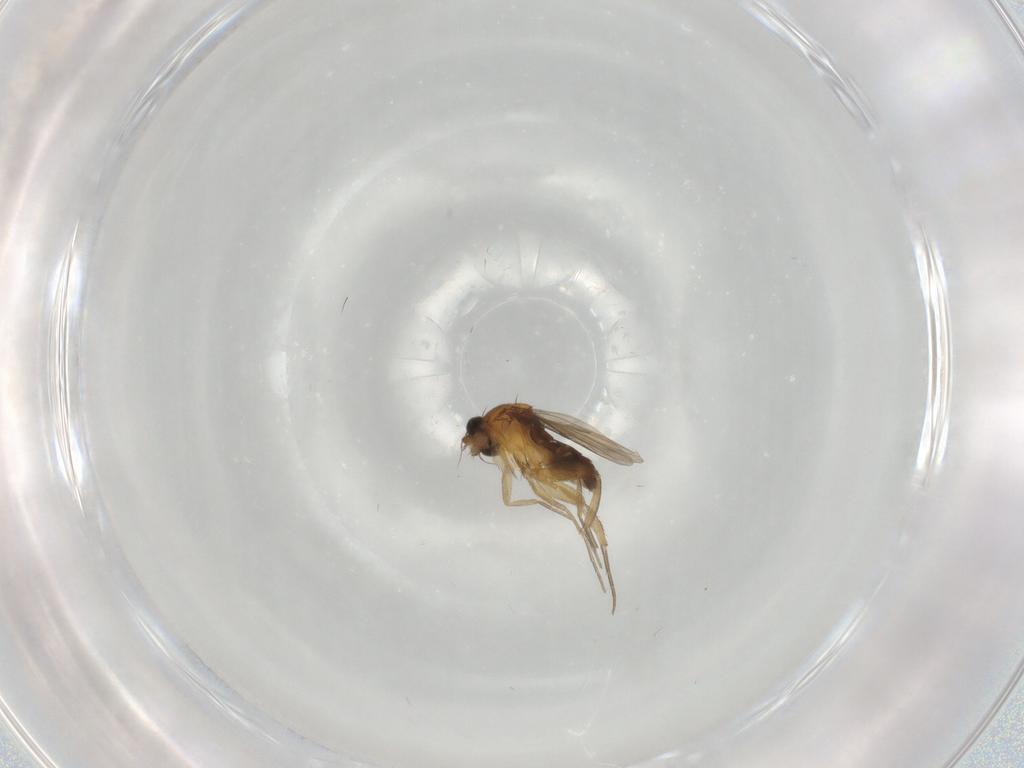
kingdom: Animalia
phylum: Arthropoda
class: Insecta
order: Diptera
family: Phoridae
